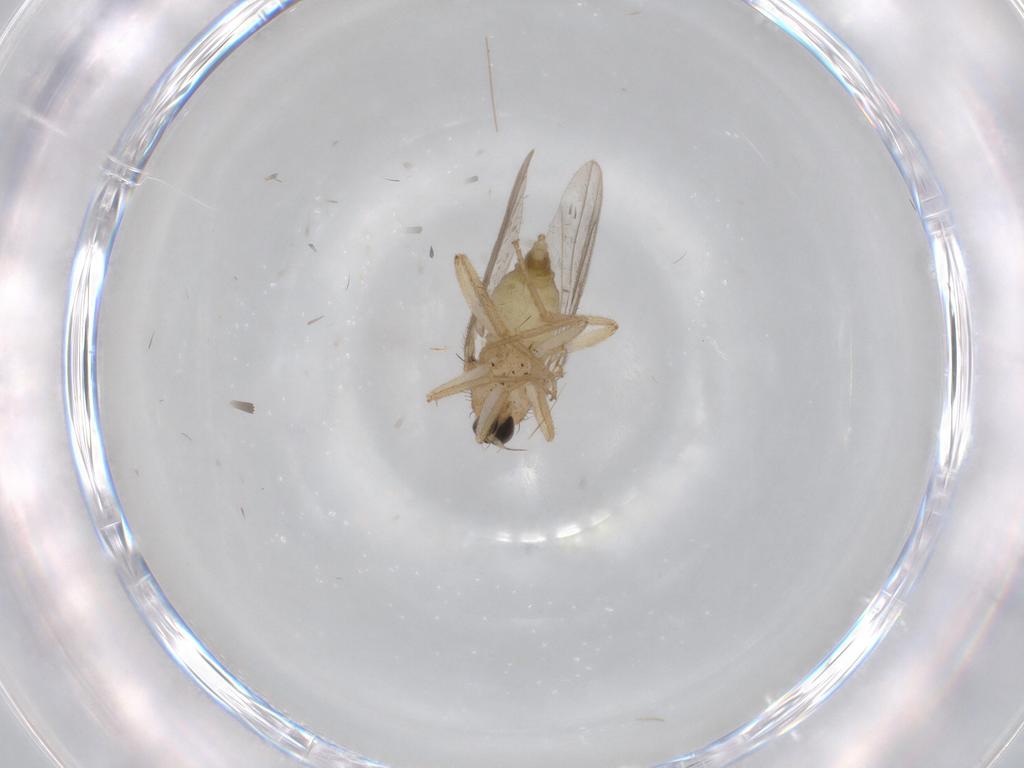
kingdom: Animalia
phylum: Arthropoda
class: Insecta
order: Diptera
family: Hybotidae
